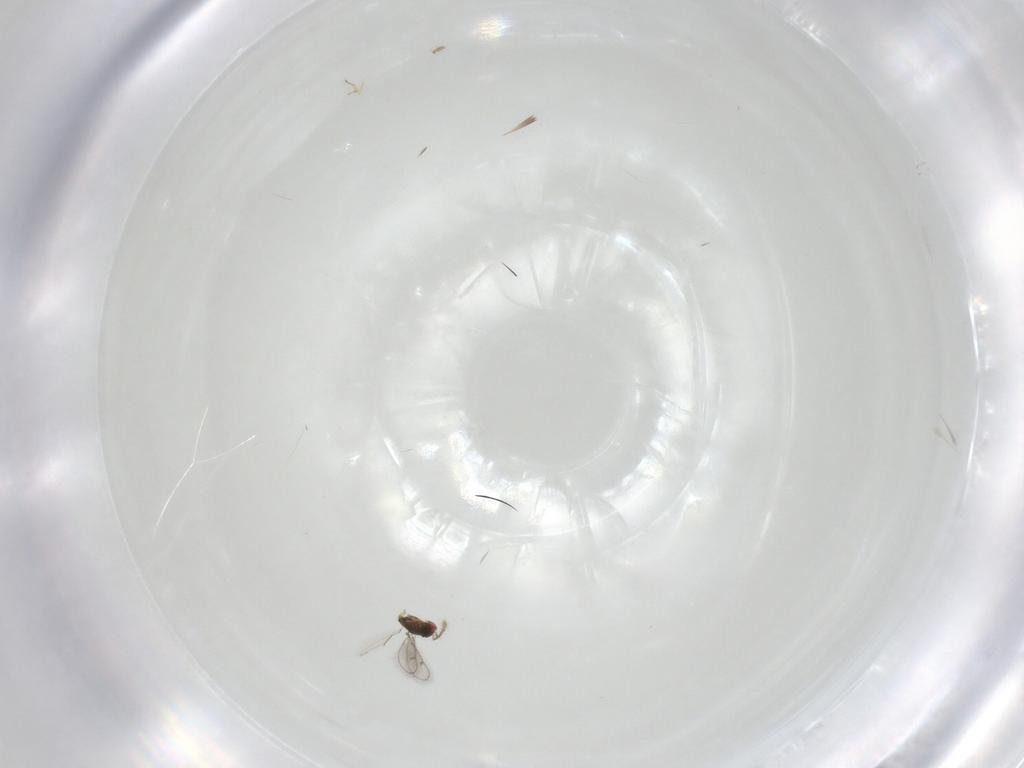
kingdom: Animalia
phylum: Arthropoda
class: Insecta
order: Hymenoptera
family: Eulophidae
